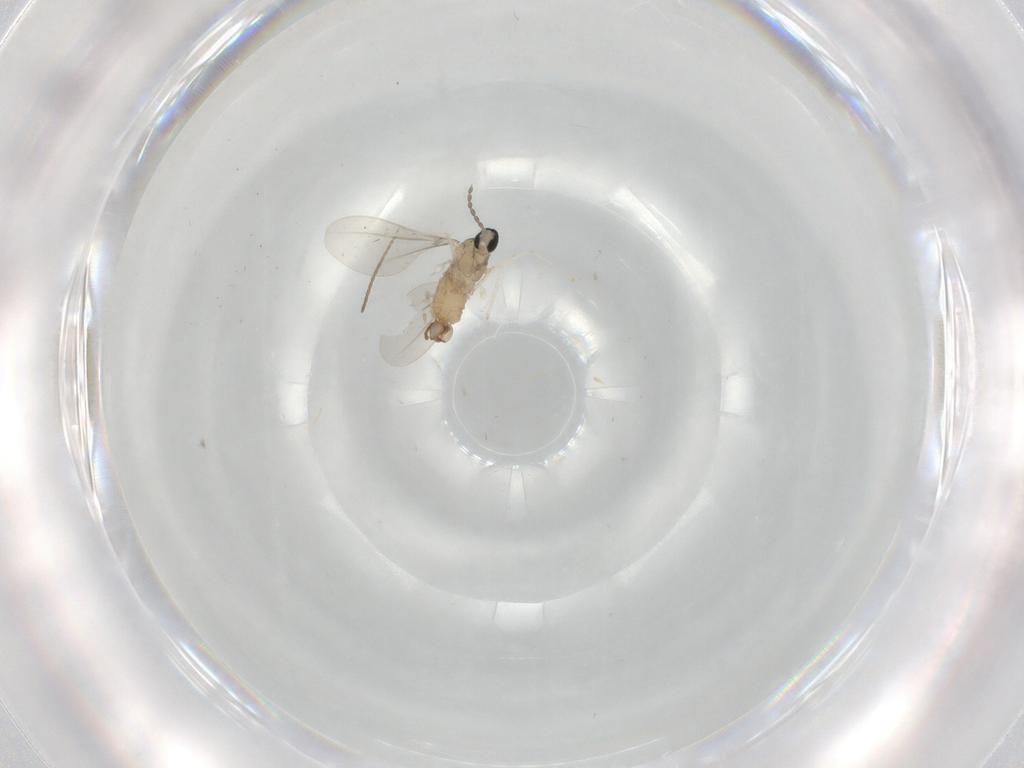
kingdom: Animalia
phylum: Arthropoda
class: Insecta
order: Diptera
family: Cecidomyiidae
